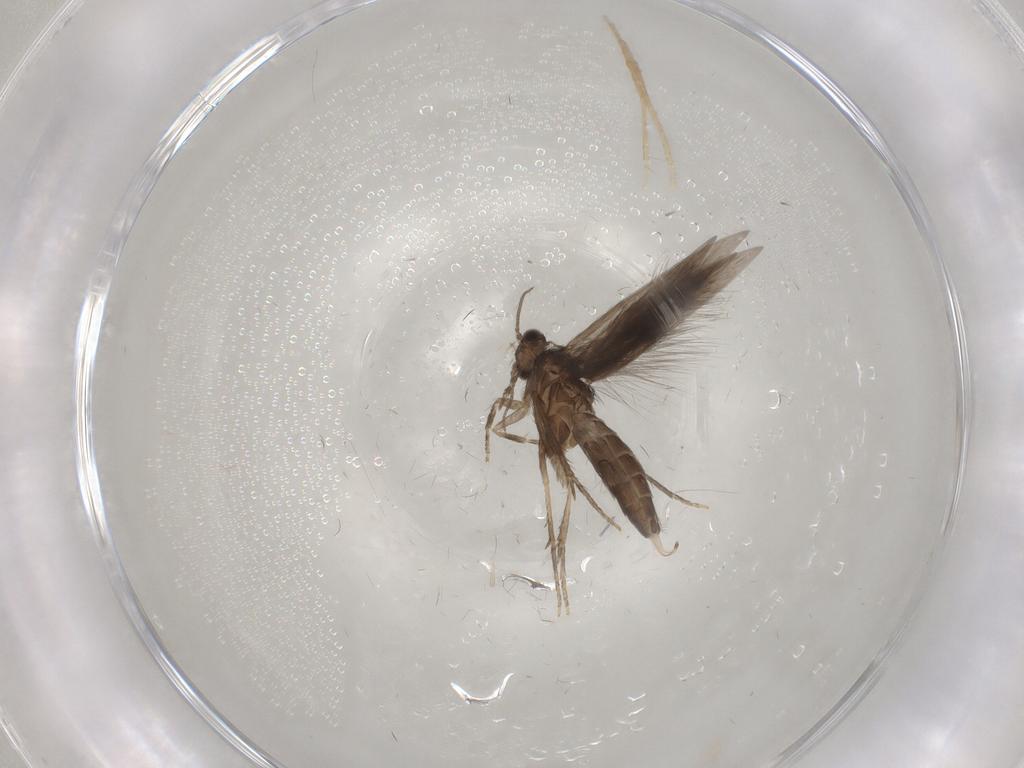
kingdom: Animalia
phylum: Arthropoda
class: Insecta
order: Trichoptera
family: Hydroptilidae
